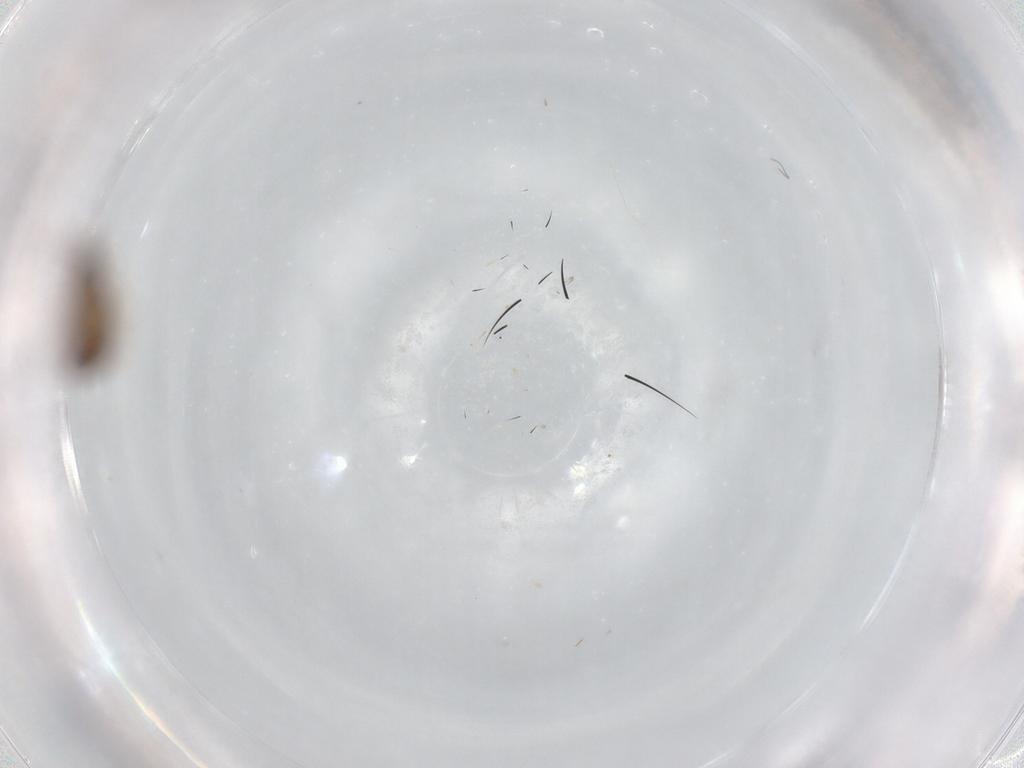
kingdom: Animalia
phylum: Arthropoda
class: Insecta
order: Diptera
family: Ceratopogonidae
